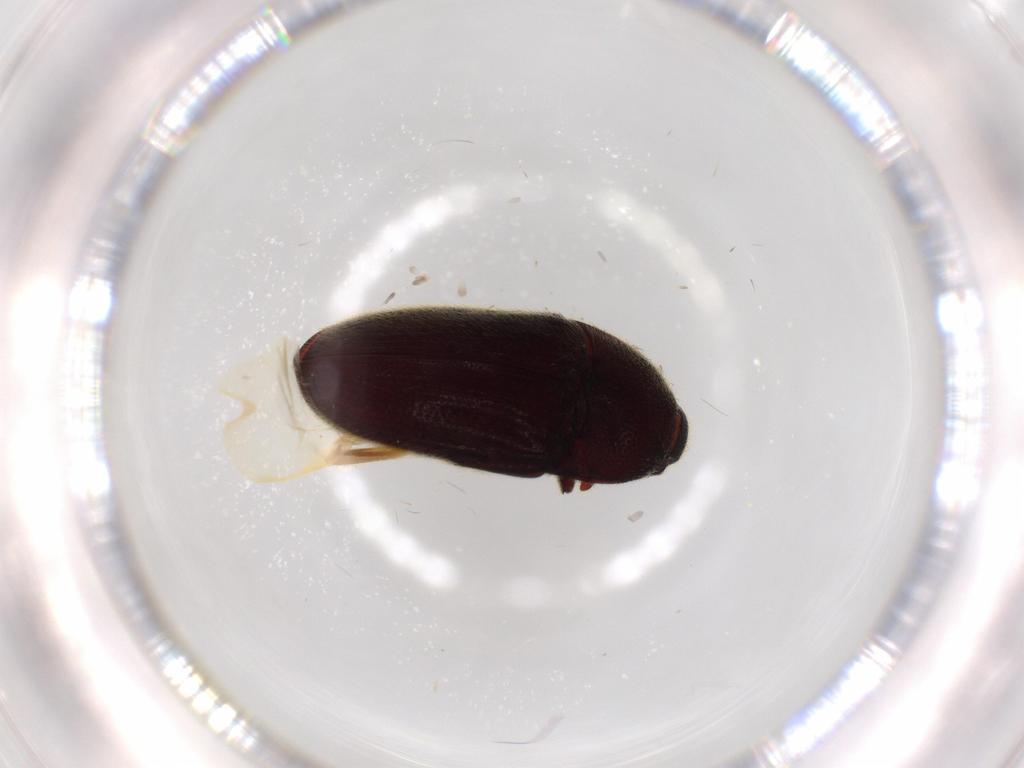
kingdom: Animalia
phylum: Arthropoda
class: Insecta
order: Coleoptera
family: Throscidae
